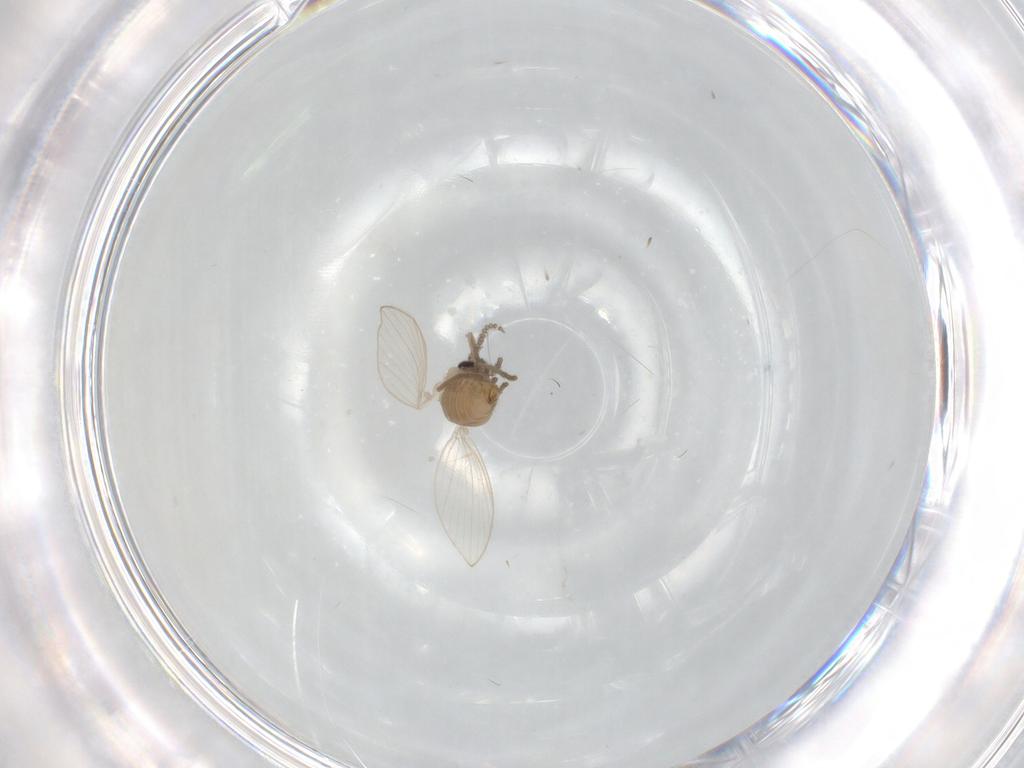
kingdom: Animalia
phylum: Arthropoda
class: Insecta
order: Diptera
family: Psychodidae
